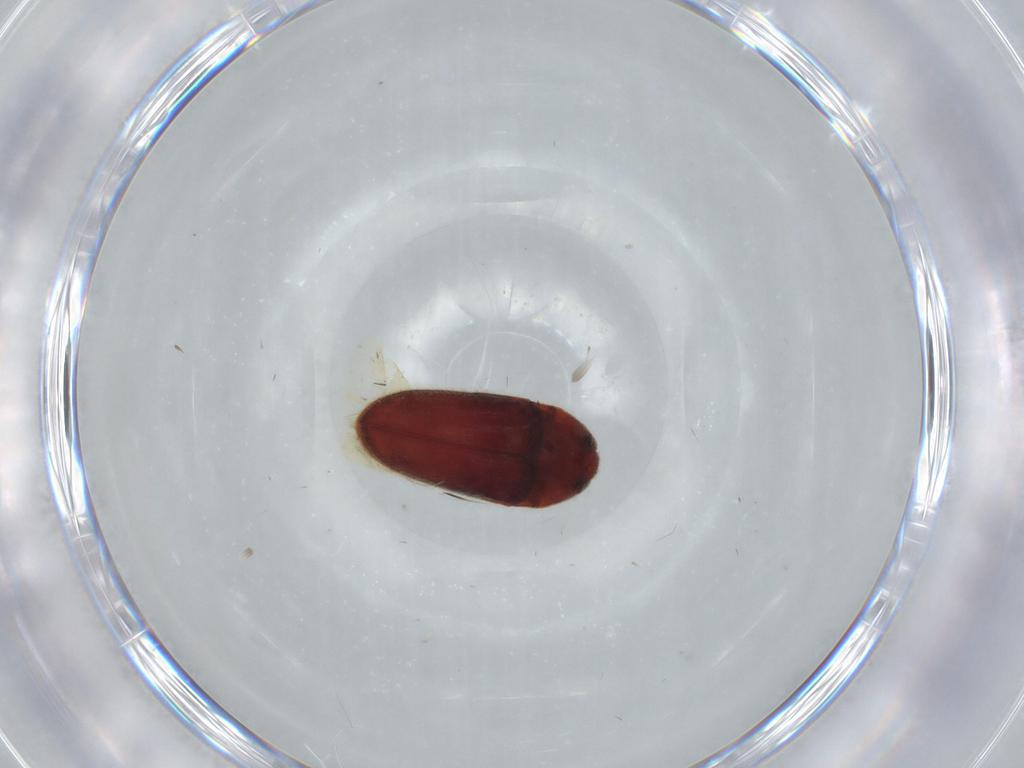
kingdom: Animalia
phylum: Arthropoda
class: Insecta
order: Coleoptera
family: Throscidae
